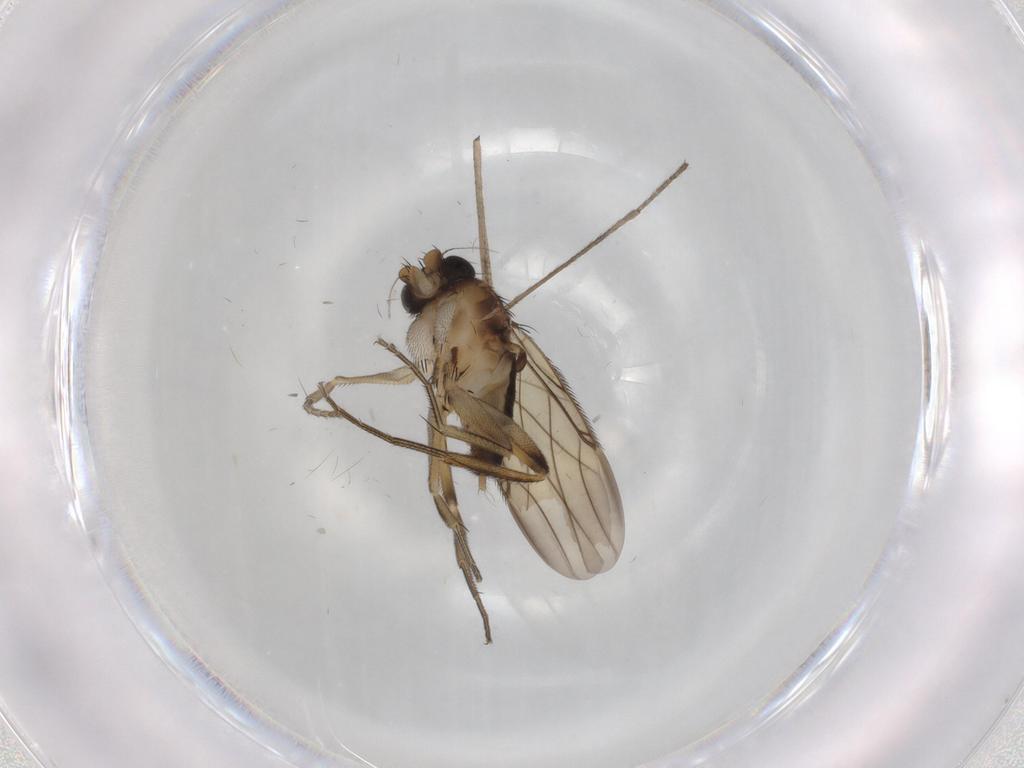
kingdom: Animalia
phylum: Arthropoda
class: Insecta
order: Diptera
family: Phoridae
